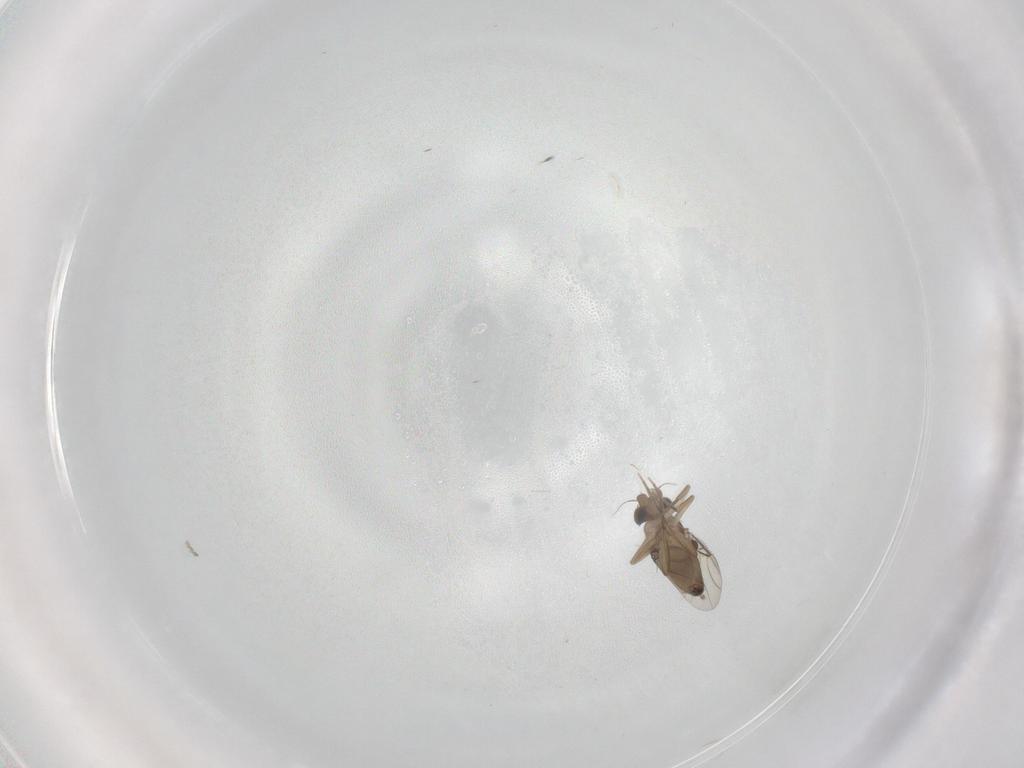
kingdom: Animalia
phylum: Arthropoda
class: Insecta
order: Diptera
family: Phoridae
